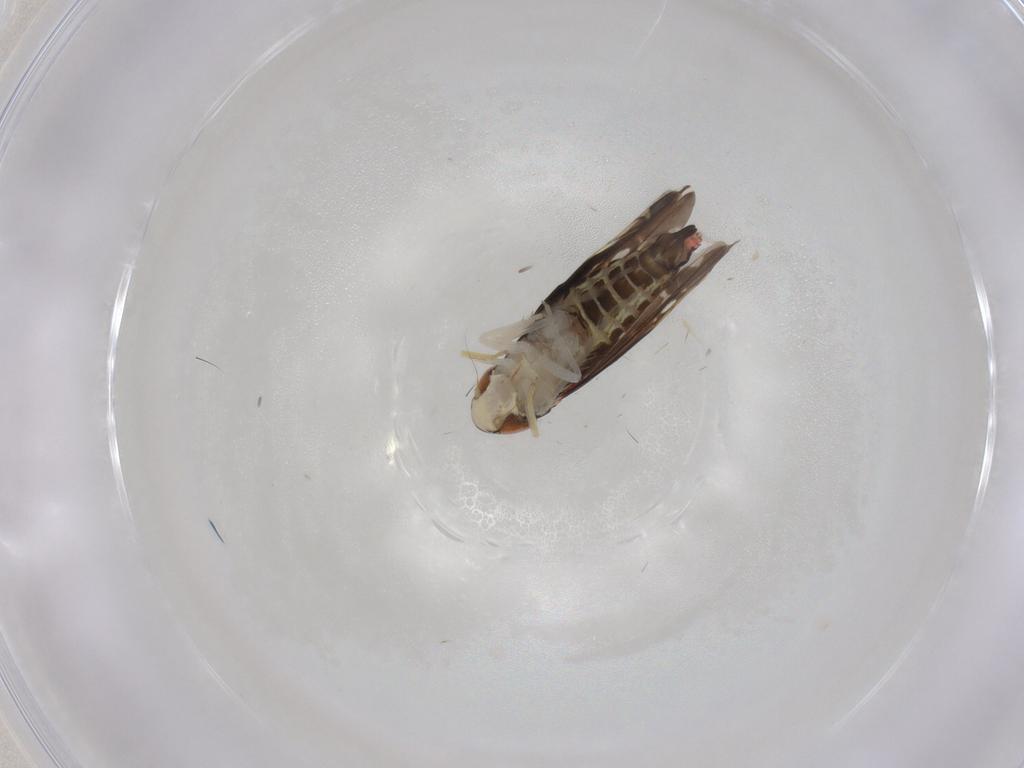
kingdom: Animalia
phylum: Arthropoda
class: Insecta
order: Hemiptera
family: Cicadellidae
